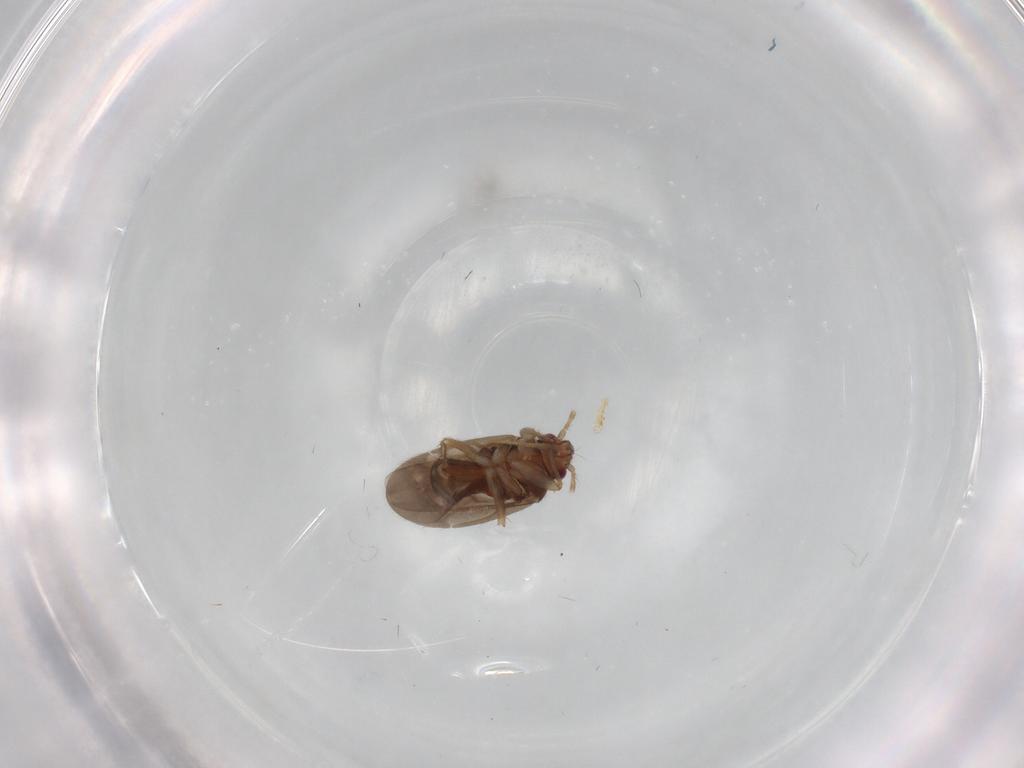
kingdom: Animalia
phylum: Arthropoda
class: Insecta
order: Hemiptera
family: Ceratocombidae
